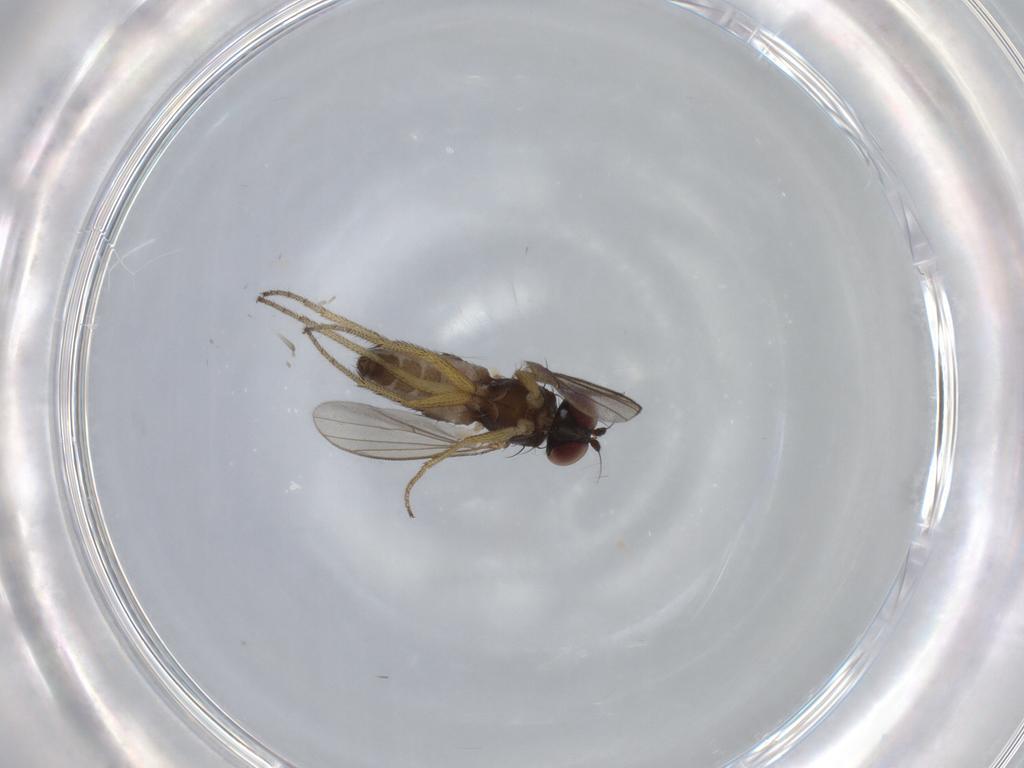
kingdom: Animalia
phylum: Arthropoda
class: Insecta
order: Diptera
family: Dolichopodidae
